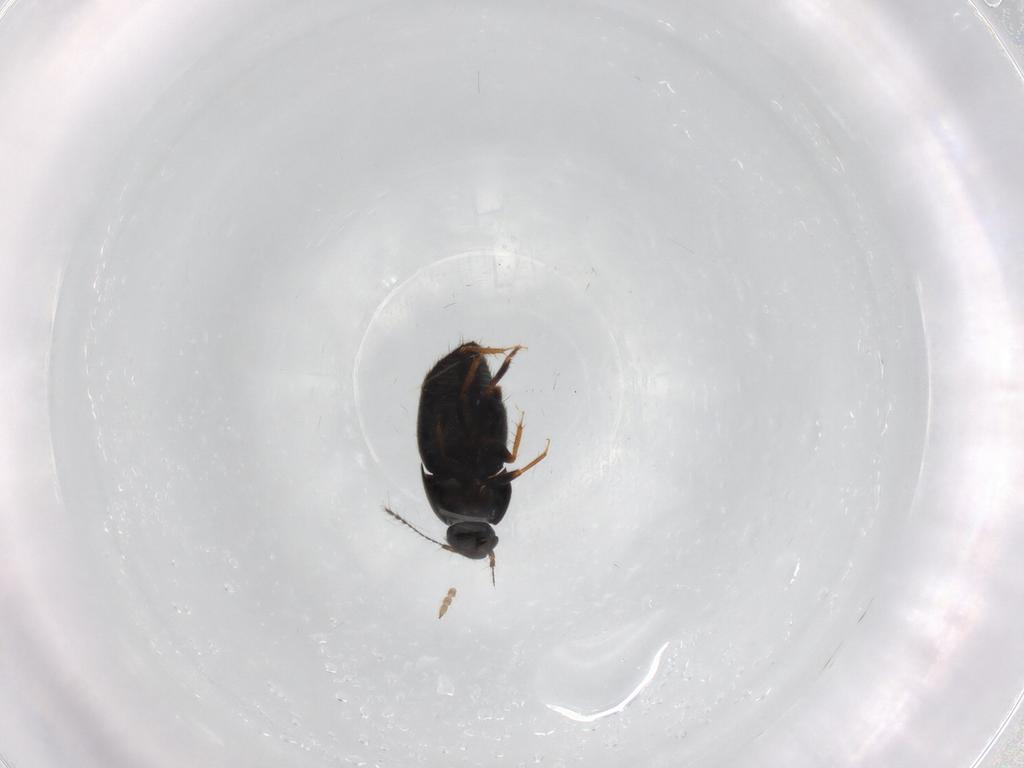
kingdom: Animalia
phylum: Arthropoda
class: Insecta
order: Coleoptera
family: Staphylinidae
